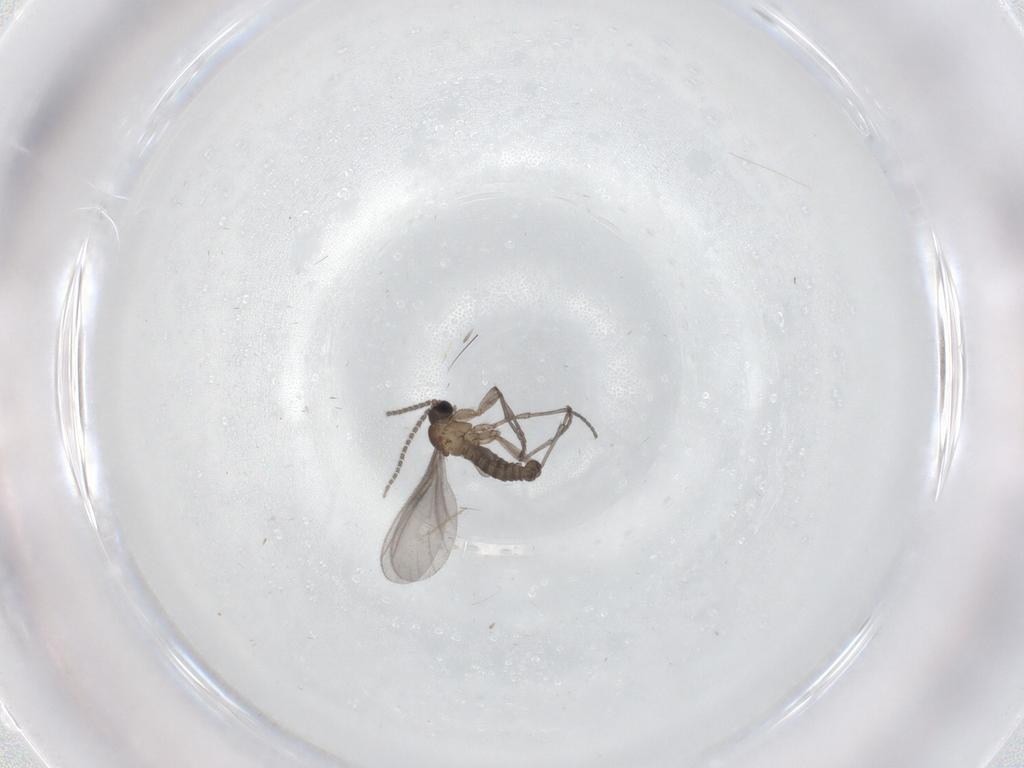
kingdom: Animalia
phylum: Arthropoda
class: Insecta
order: Diptera
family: Sciaridae
